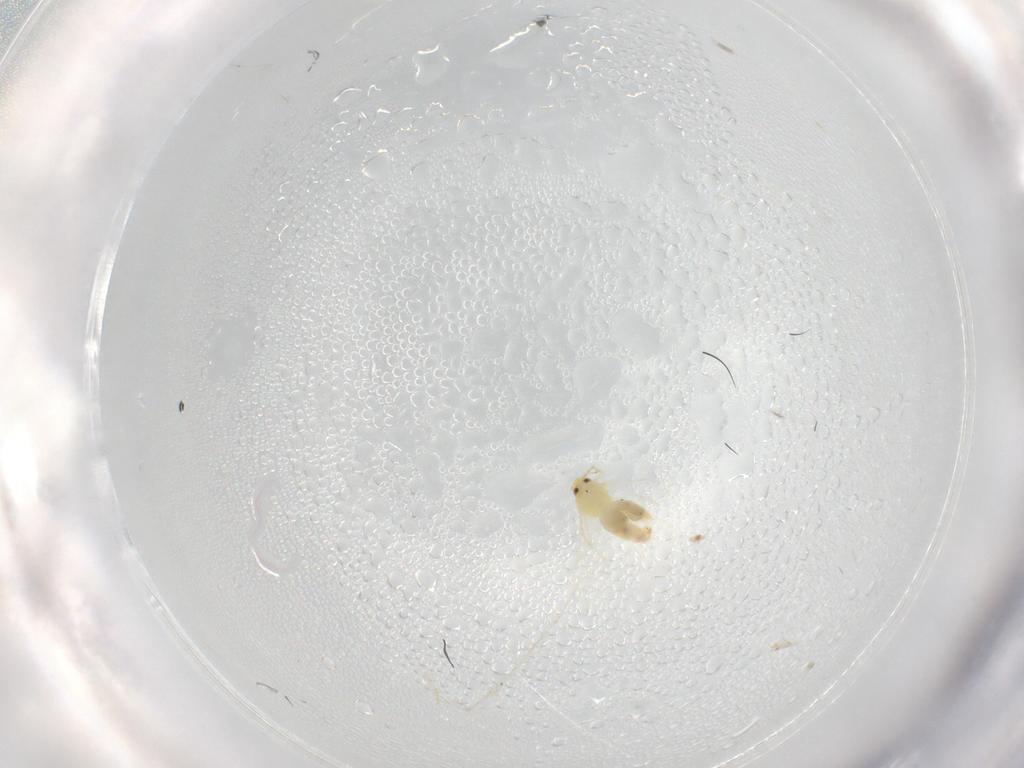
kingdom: Animalia
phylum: Arthropoda
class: Insecta
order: Hemiptera
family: Aleyrodidae
